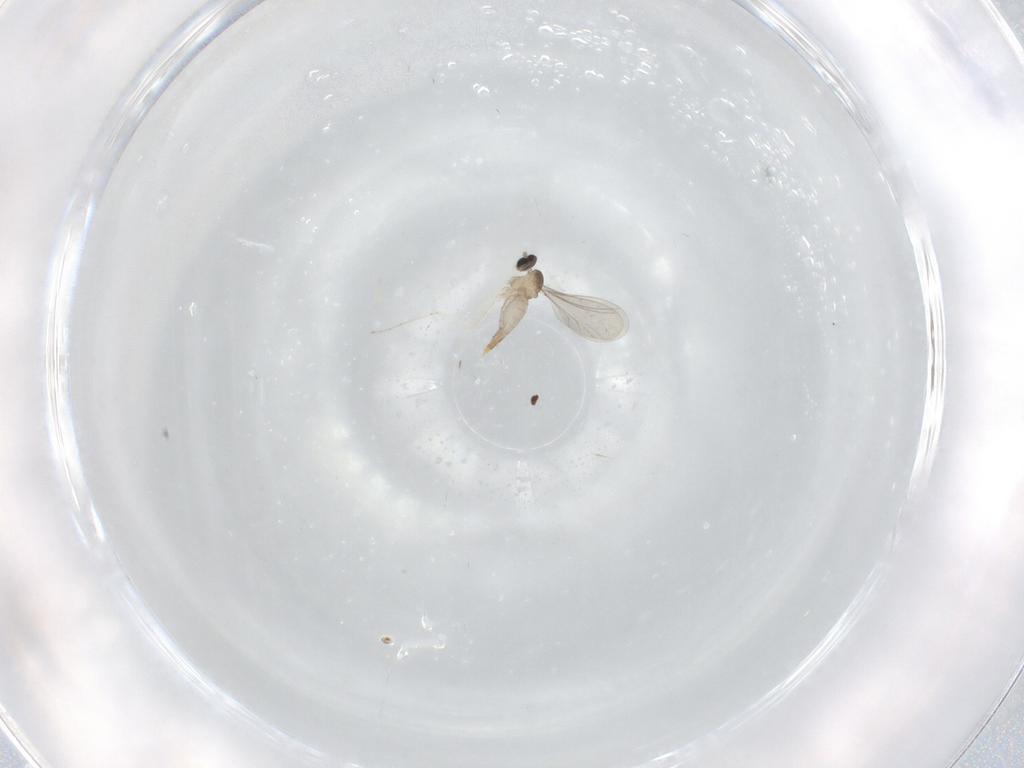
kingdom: Animalia
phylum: Arthropoda
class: Insecta
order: Diptera
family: Cecidomyiidae
